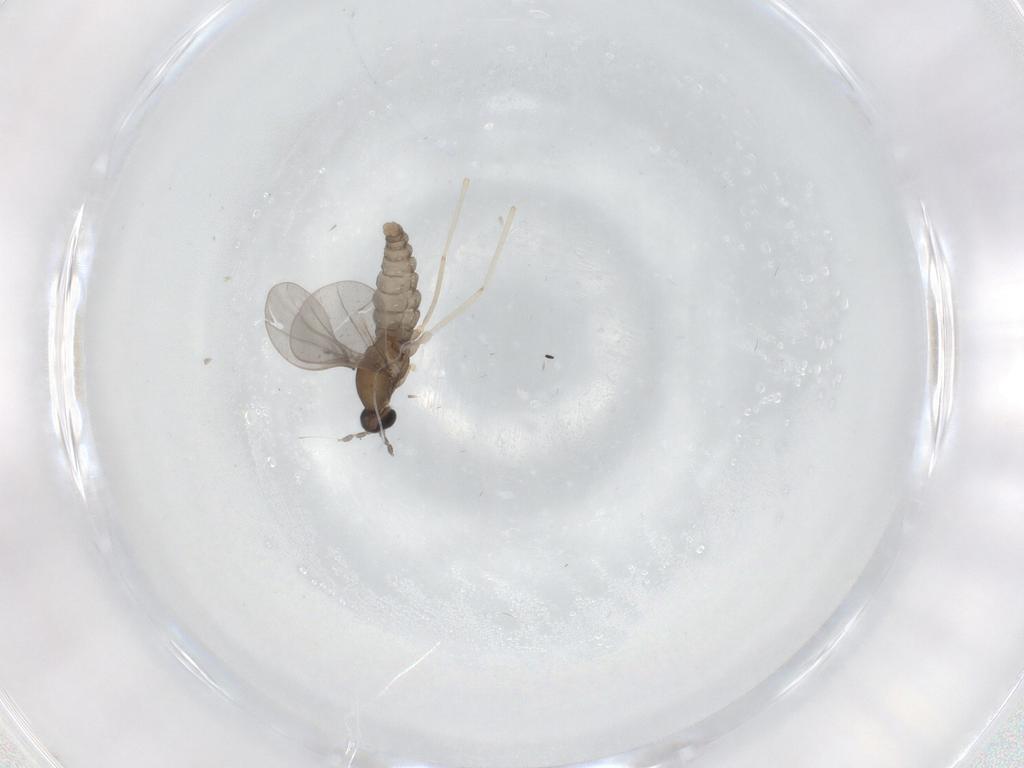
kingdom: Animalia
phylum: Arthropoda
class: Insecta
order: Diptera
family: Cecidomyiidae
